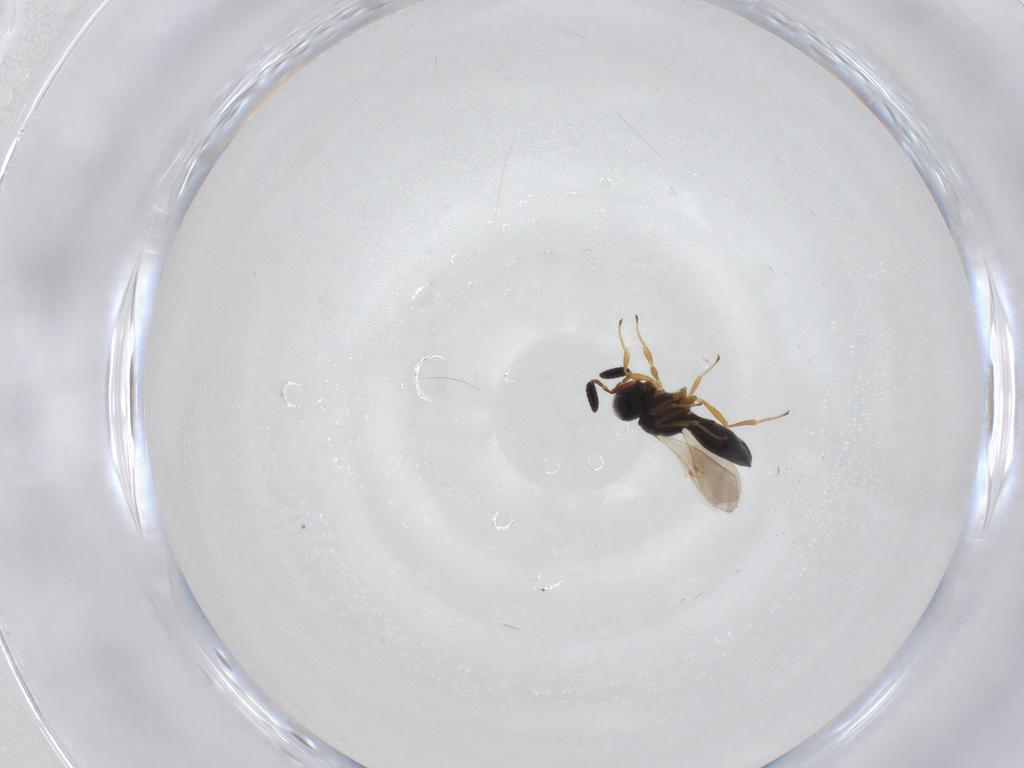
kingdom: Animalia
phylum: Arthropoda
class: Insecta
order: Hymenoptera
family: Scelionidae
